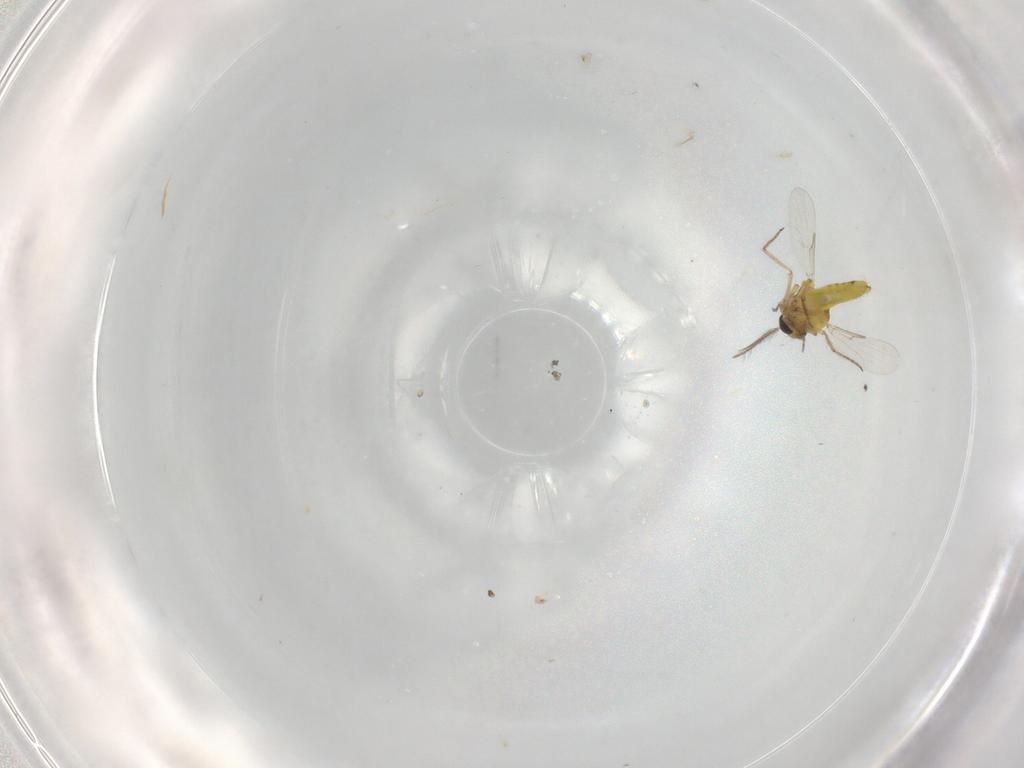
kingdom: Animalia
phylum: Arthropoda
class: Insecta
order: Diptera
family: Ceratopogonidae
